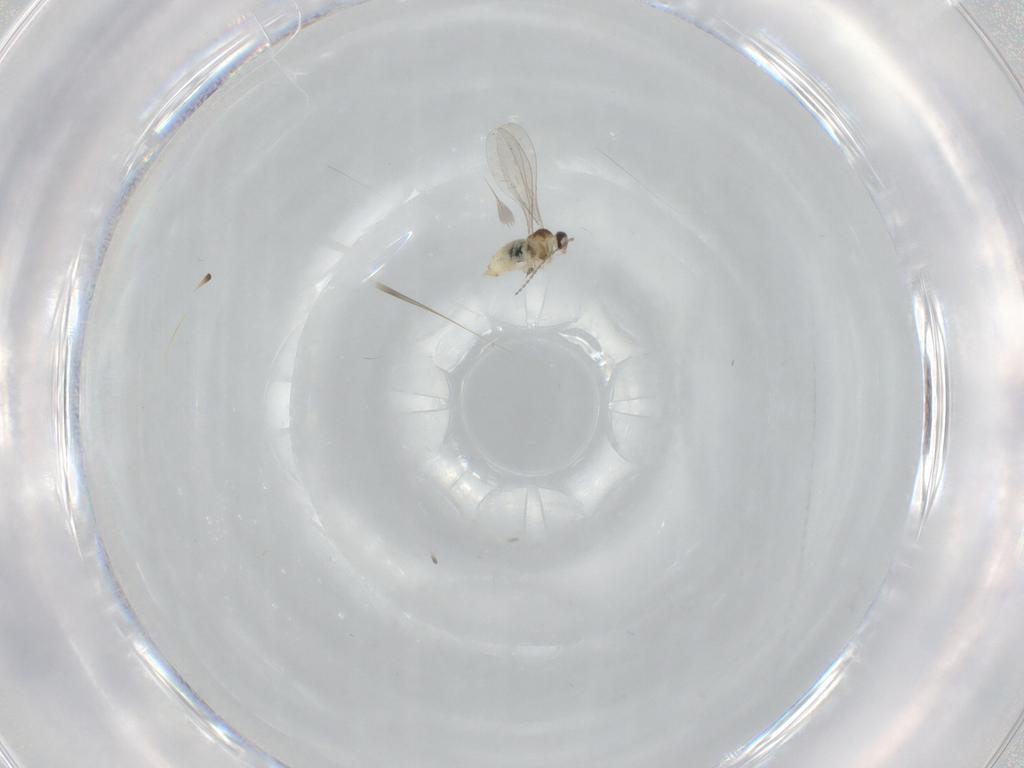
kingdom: Animalia
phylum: Arthropoda
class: Insecta
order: Diptera
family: Cecidomyiidae
